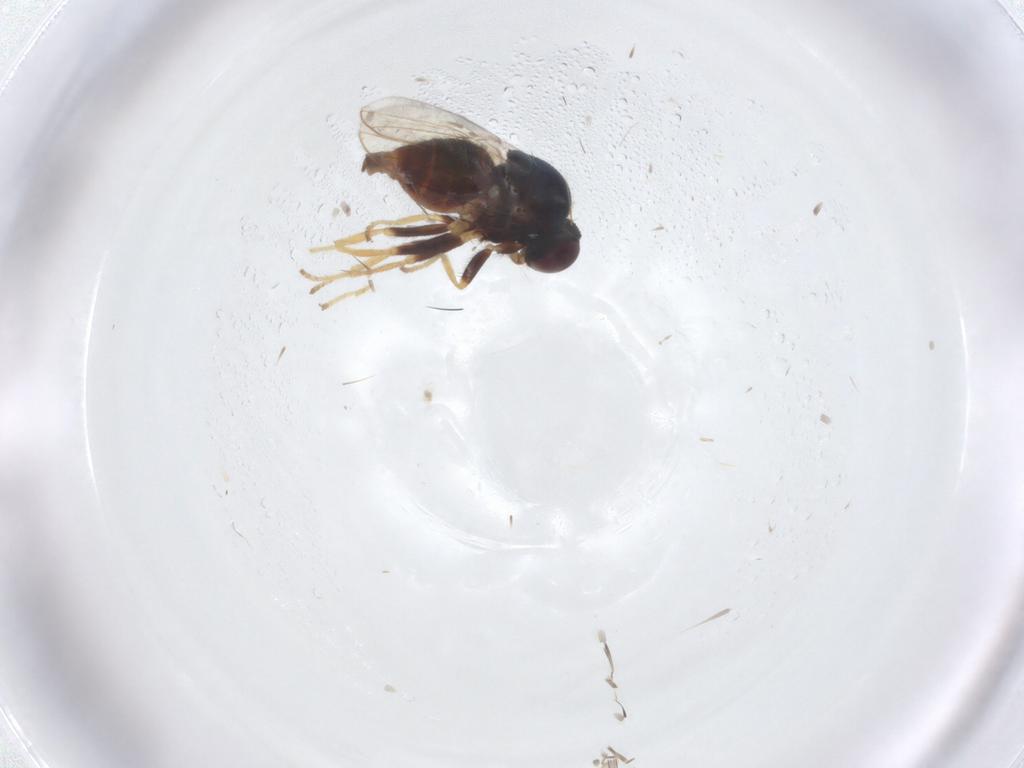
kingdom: Animalia
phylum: Arthropoda
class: Insecta
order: Diptera
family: Chloropidae
